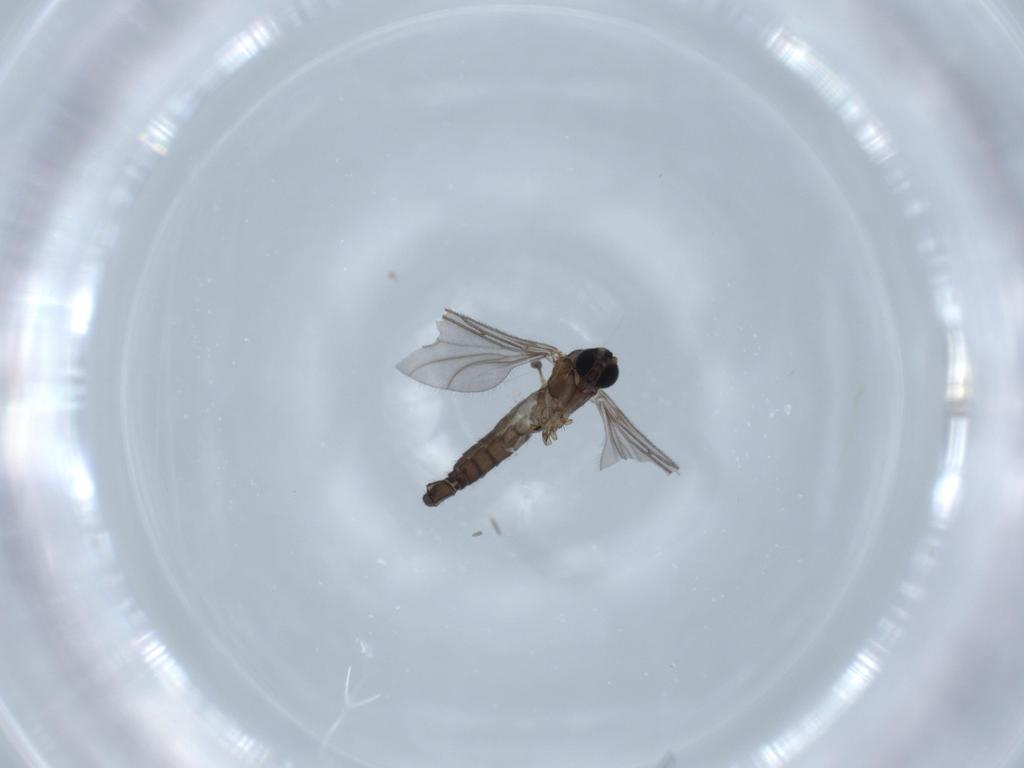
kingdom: Animalia
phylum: Arthropoda
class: Insecta
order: Diptera
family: Sciaridae
